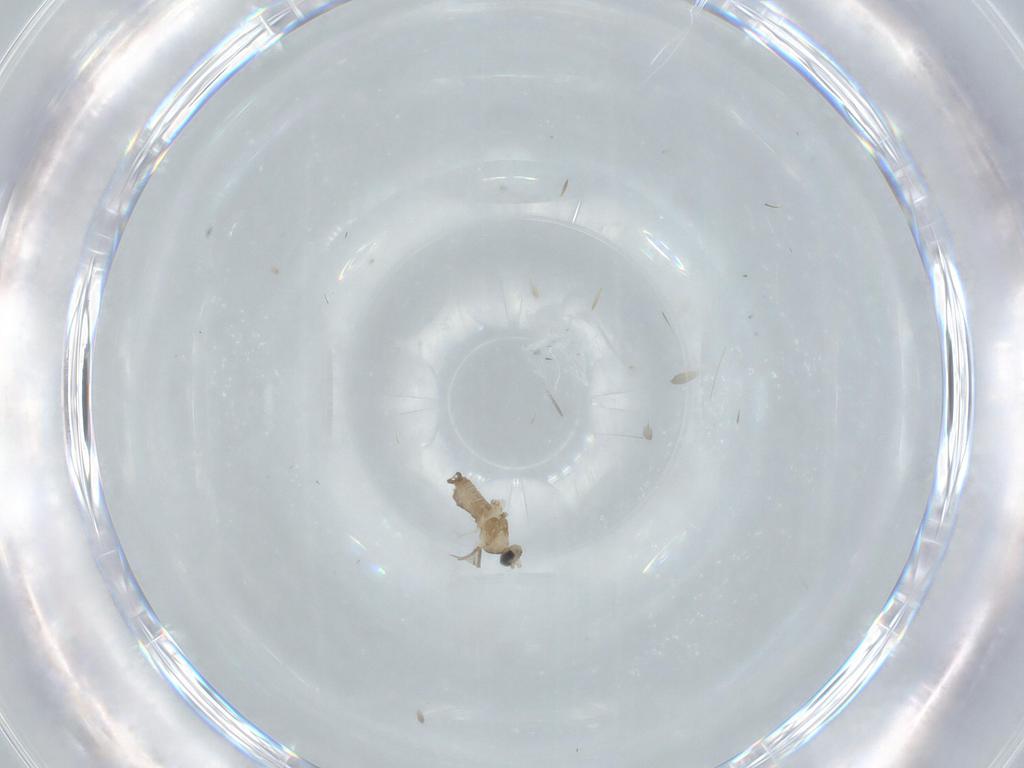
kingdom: Animalia
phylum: Arthropoda
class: Insecta
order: Diptera
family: Cecidomyiidae
